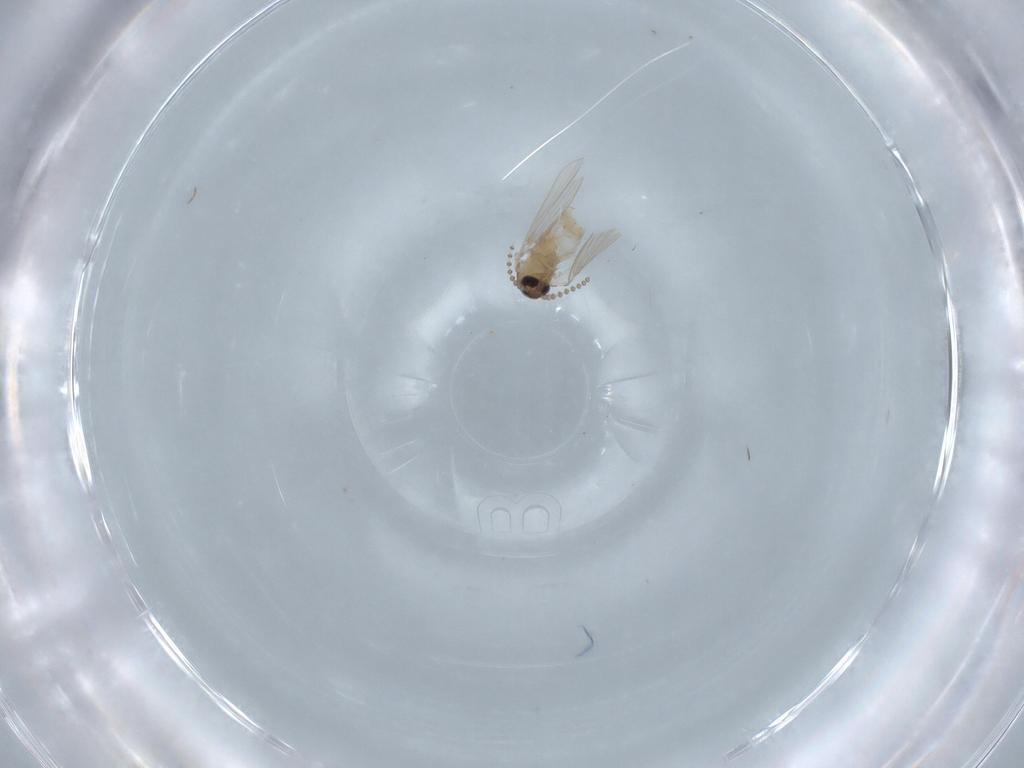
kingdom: Animalia
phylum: Arthropoda
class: Insecta
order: Diptera
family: Psychodidae
